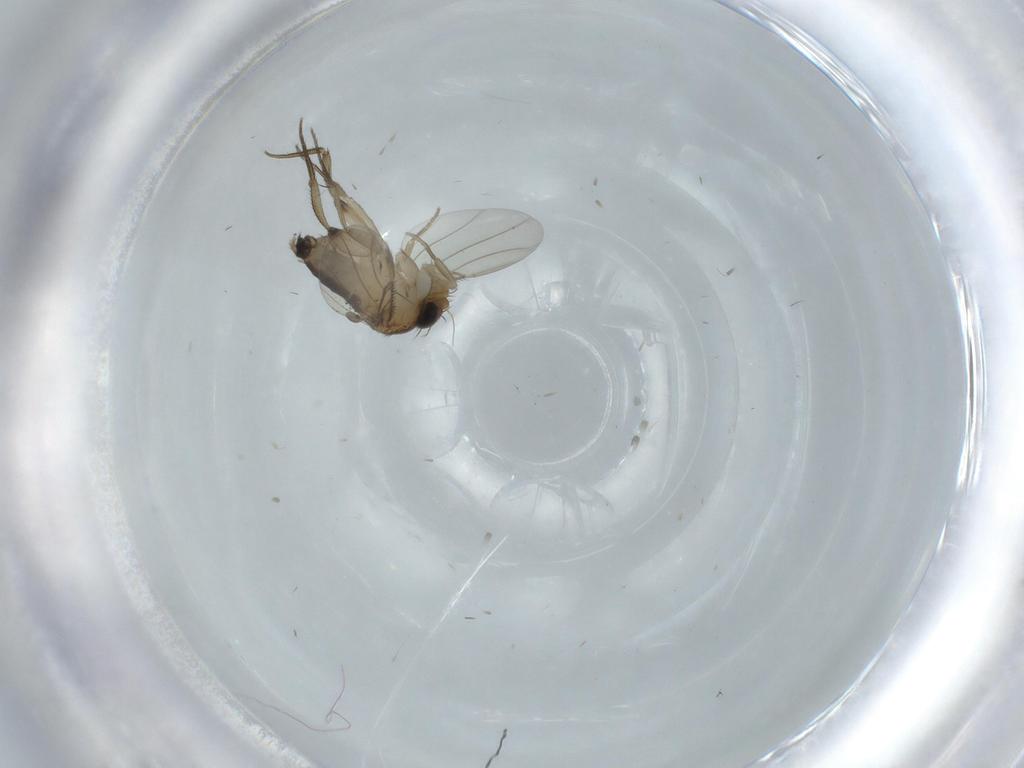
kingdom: Animalia
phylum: Arthropoda
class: Insecta
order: Diptera
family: Phoridae
